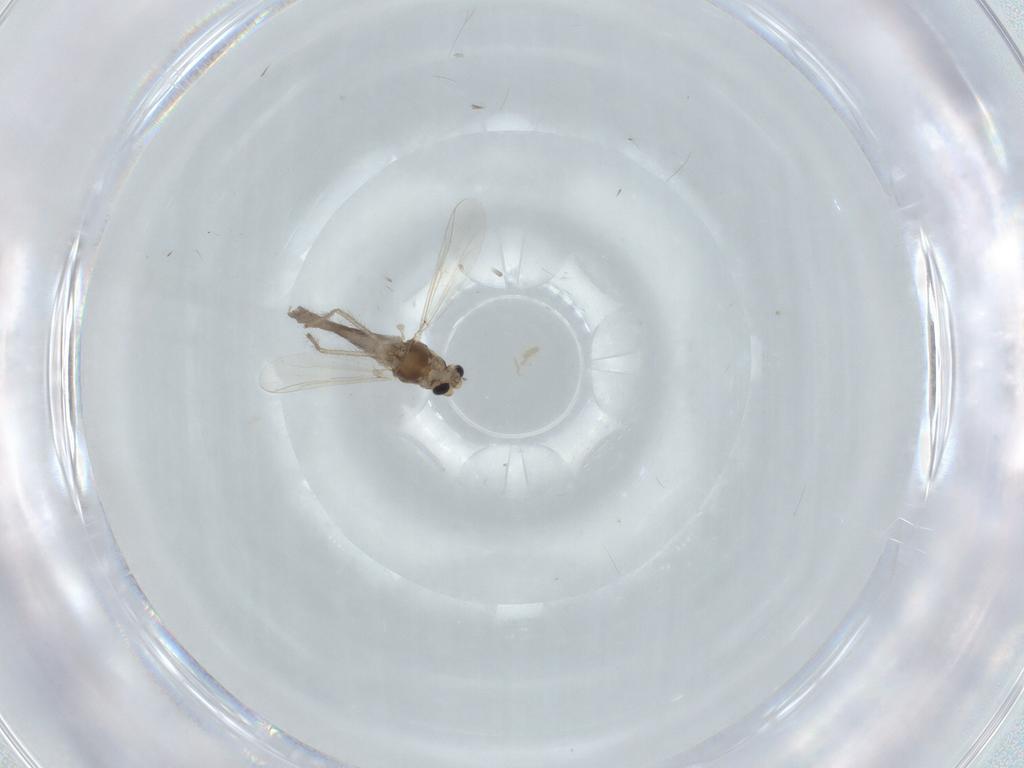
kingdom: Animalia
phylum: Arthropoda
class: Insecta
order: Diptera
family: Chironomidae
